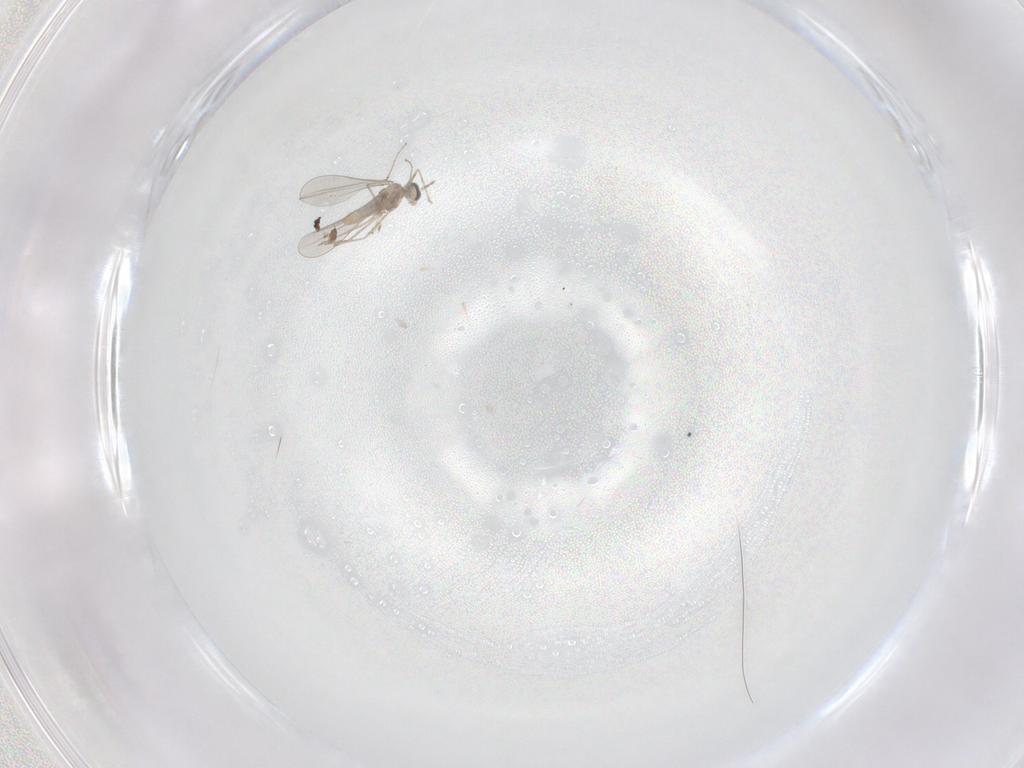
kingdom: Animalia
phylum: Arthropoda
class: Insecta
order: Diptera
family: Cecidomyiidae
